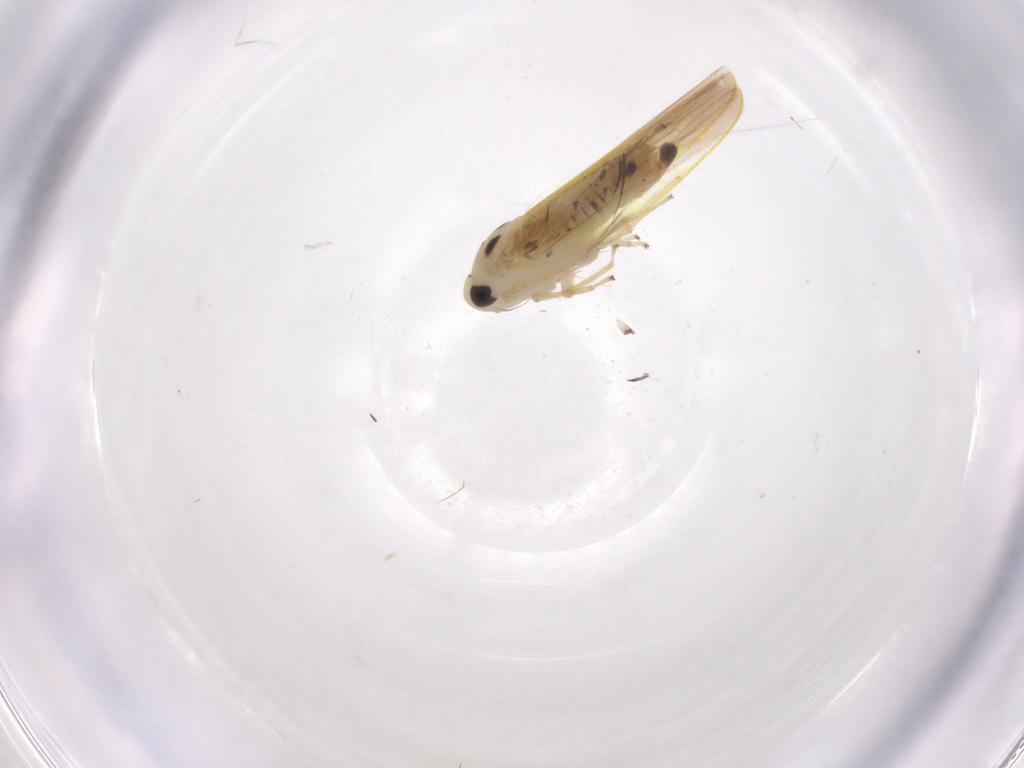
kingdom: Animalia
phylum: Arthropoda
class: Insecta
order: Hemiptera
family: Cicadellidae
